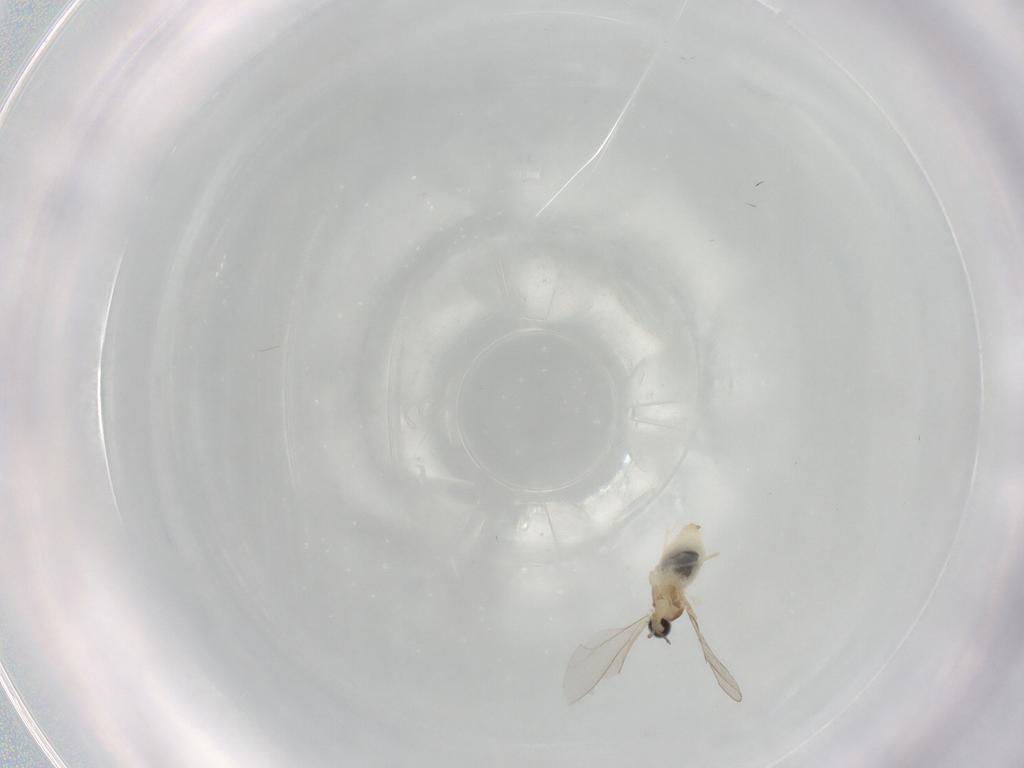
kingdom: Animalia
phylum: Arthropoda
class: Insecta
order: Diptera
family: Cecidomyiidae
